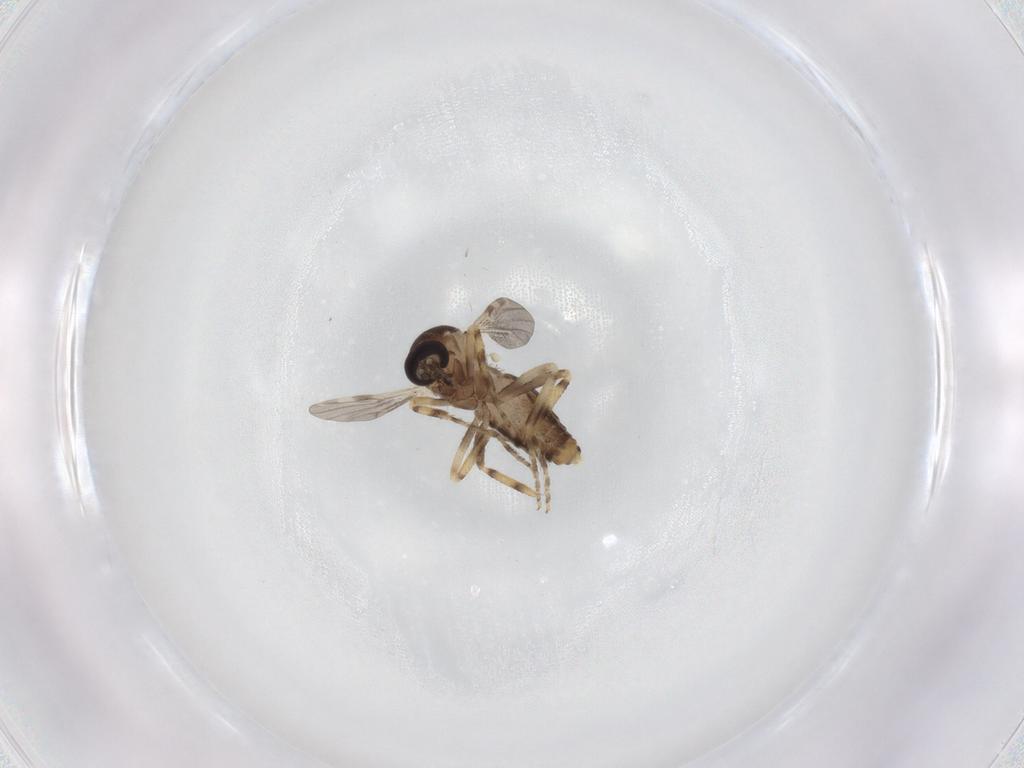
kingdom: Animalia
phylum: Arthropoda
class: Insecta
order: Diptera
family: Ceratopogonidae
